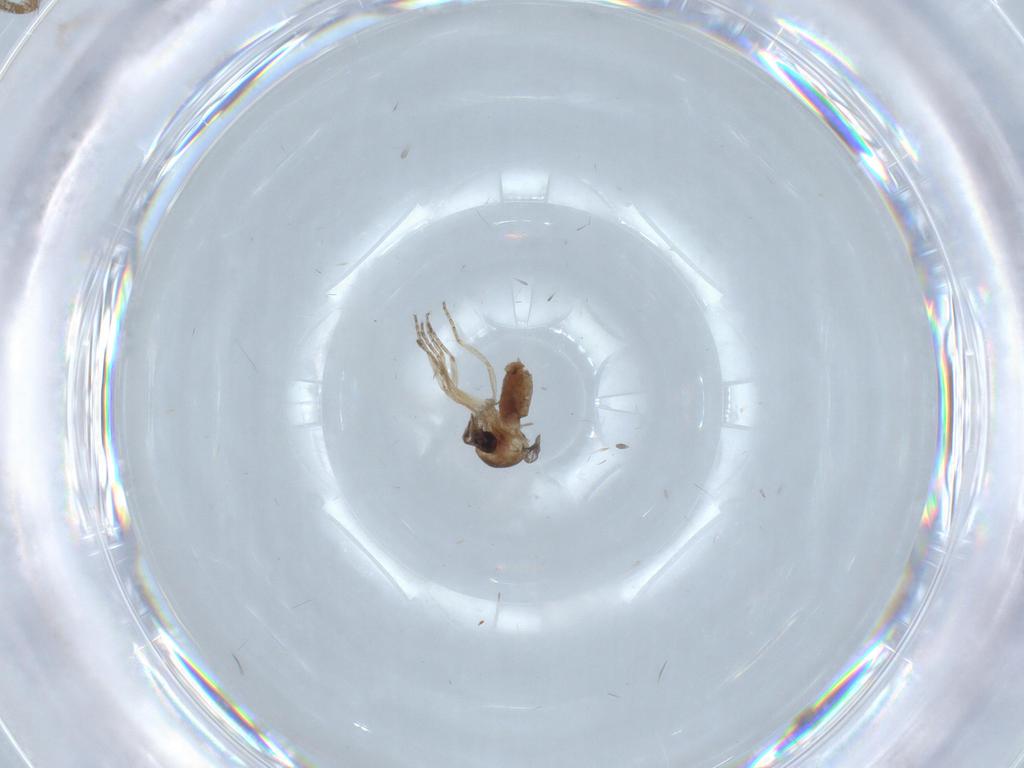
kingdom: Animalia
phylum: Arthropoda
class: Insecta
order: Diptera
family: Ceratopogonidae
